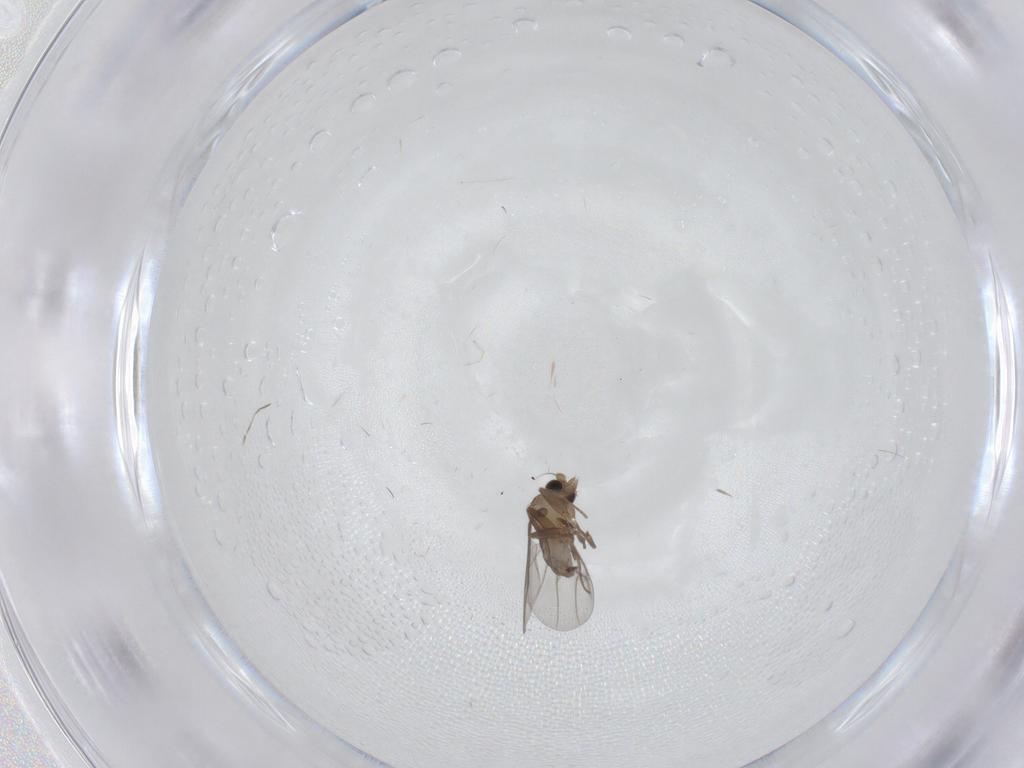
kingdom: Animalia
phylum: Arthropoda
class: Insecta
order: Diptera
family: Cecidomyiidae
